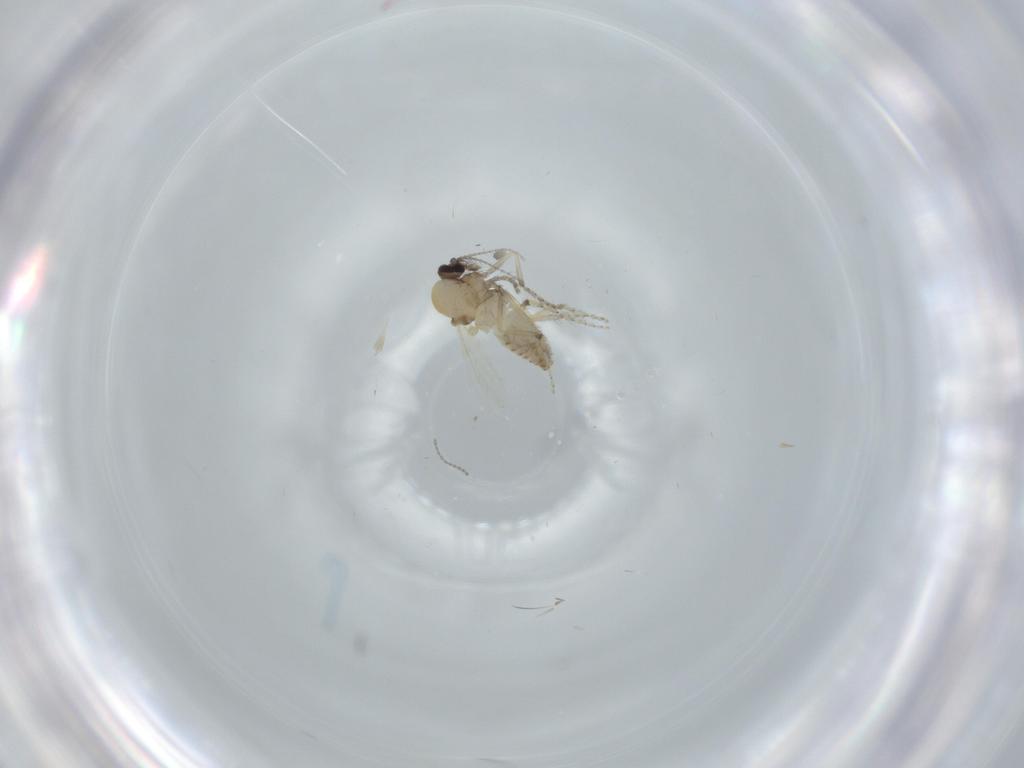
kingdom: Animalia
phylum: Arthropoda
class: Insecta
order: Diptera
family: Ceratopogonidae
